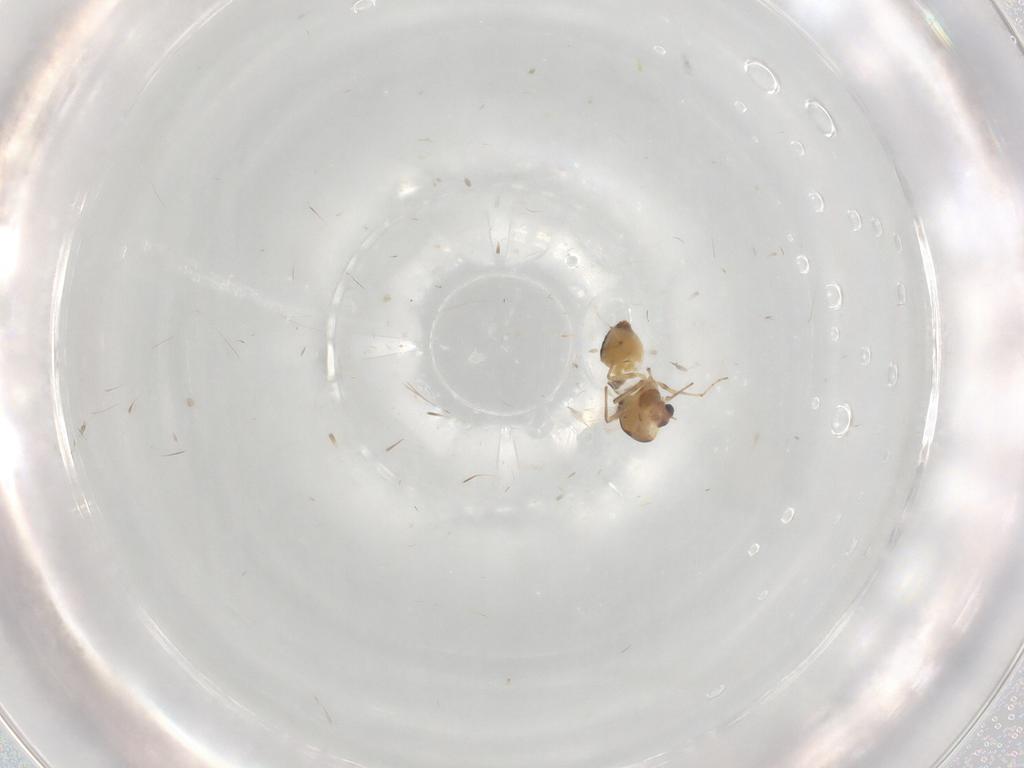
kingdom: Animalia
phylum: Arthropoda
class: Insecta
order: Diptera
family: Chironomidae
